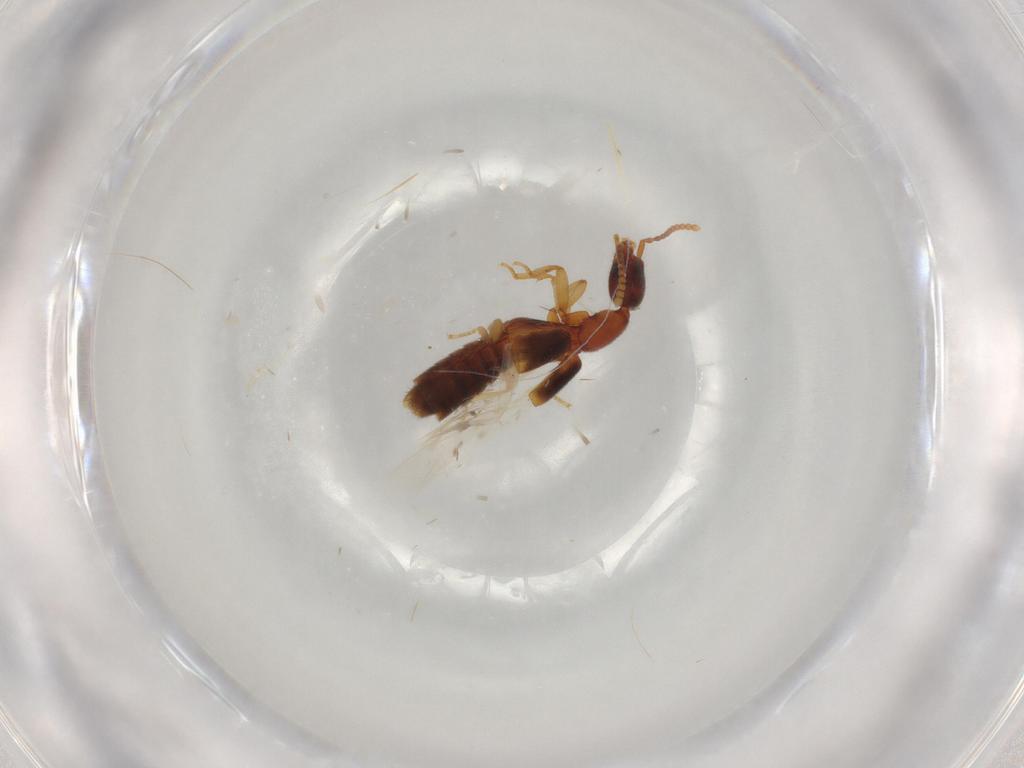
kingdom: Animalia
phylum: Arthropoda
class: Insecta
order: Coleoptera
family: Staphylinidae
